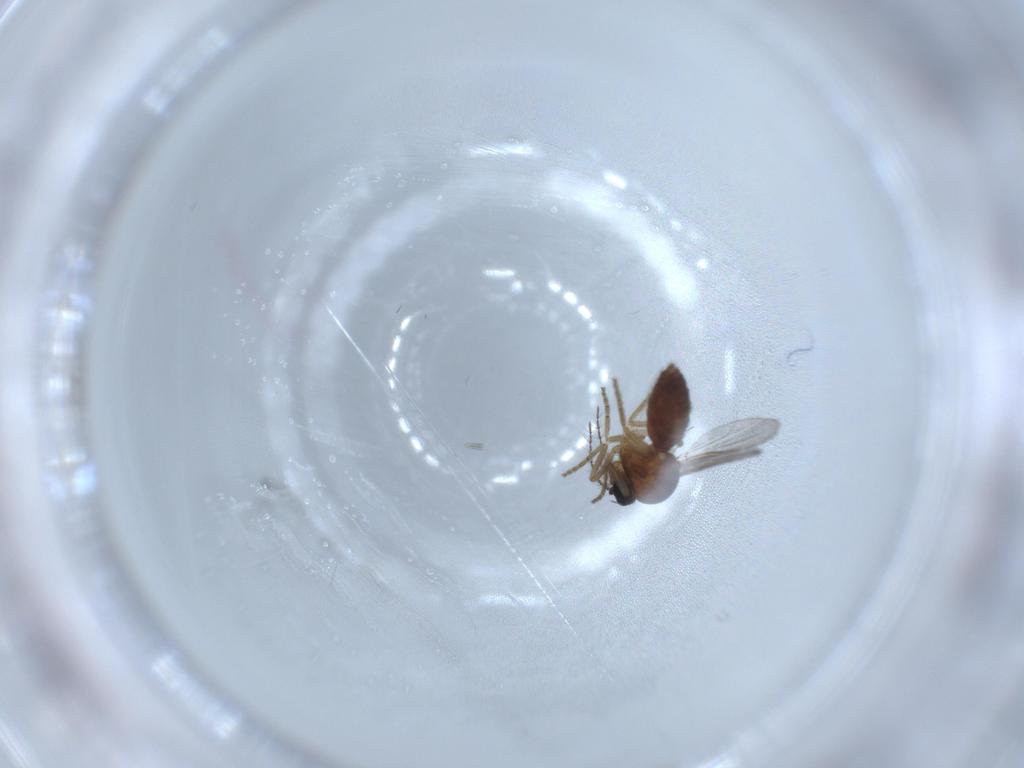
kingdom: Animalia
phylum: Arthropoda
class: Insecta
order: Diptera
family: Ceratopogonidae
